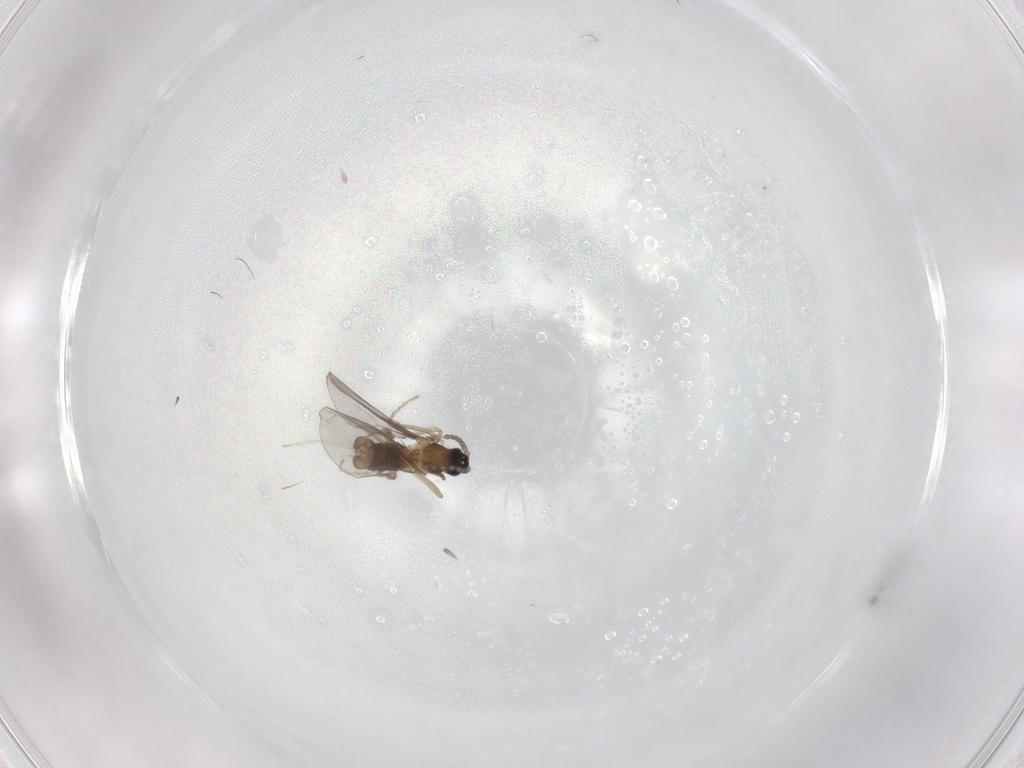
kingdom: Animalia
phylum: Arthropoda
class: Insecta
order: Diptera
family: Cecidomyiidae
